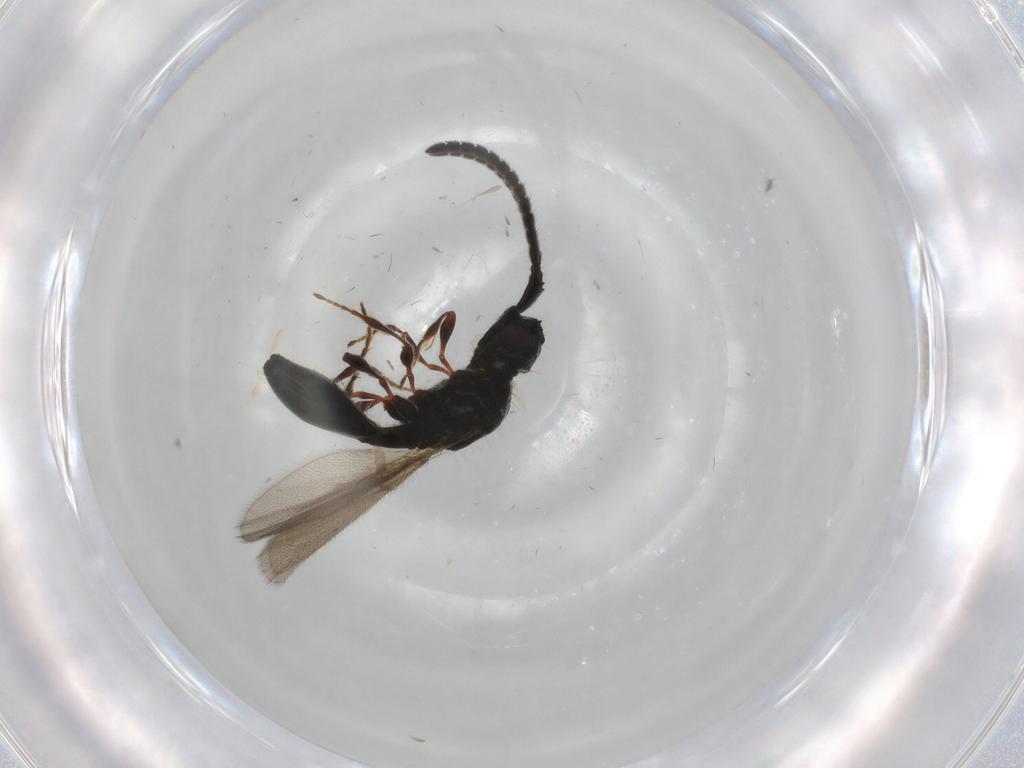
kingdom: Animalia
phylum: Arthropoda
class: Insecta
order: Hymenoptera
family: Diapriidae
